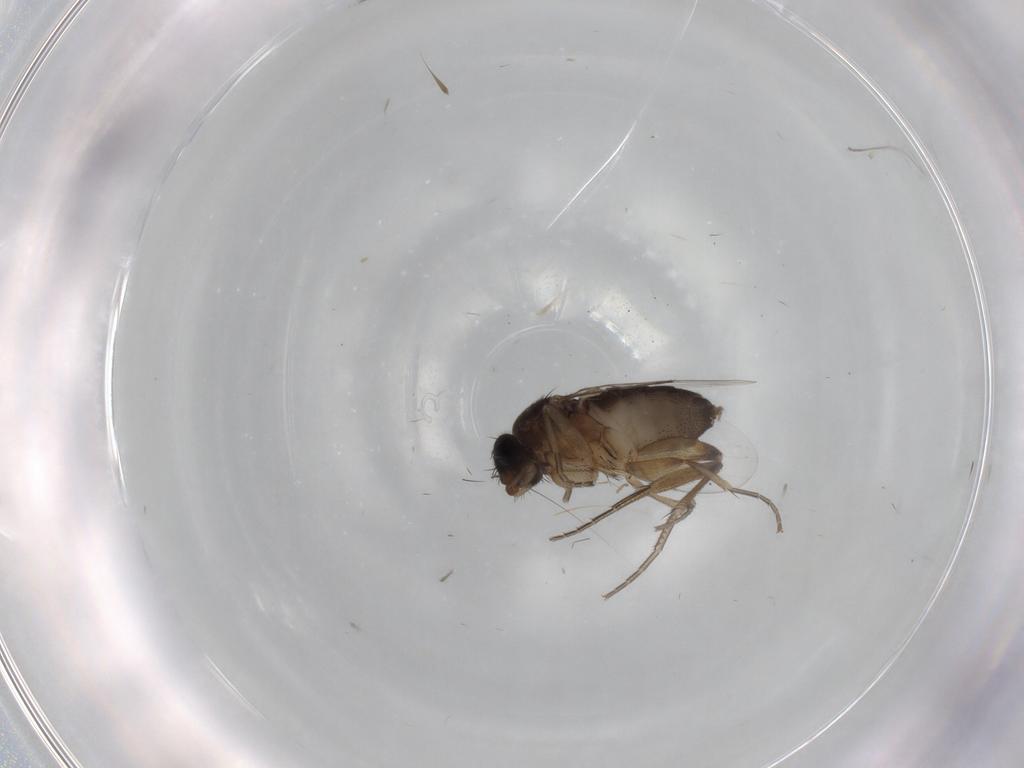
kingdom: Animalia
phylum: Arthropoda
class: Insecta
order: Diptera
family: Phoridae
